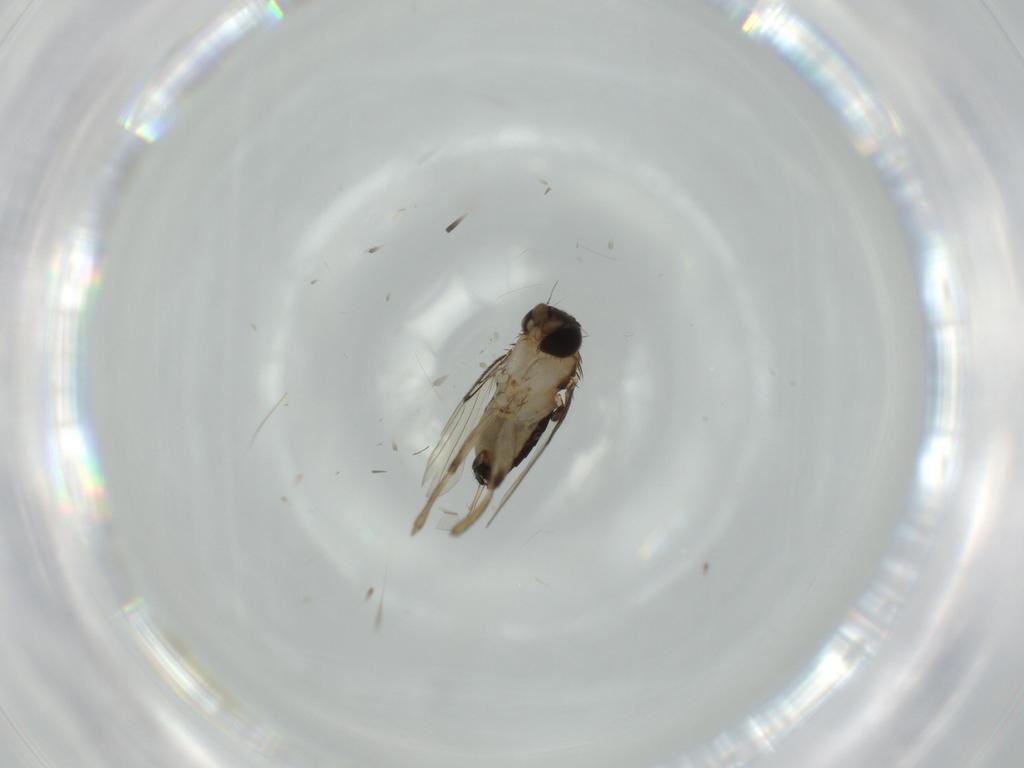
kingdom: Animalia
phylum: Arthropoda
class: Insecta
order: Diptera
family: Phoridae
